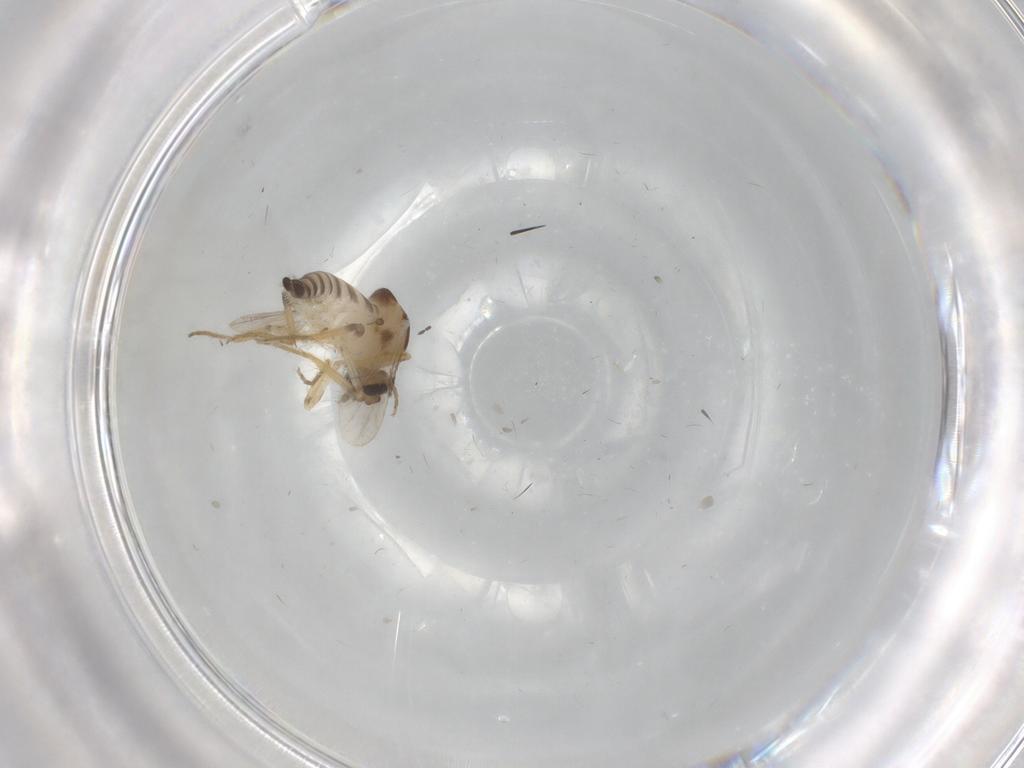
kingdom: Animalia
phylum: Arthropoda
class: Insecta
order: Diptera
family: Cecidomyiidae
